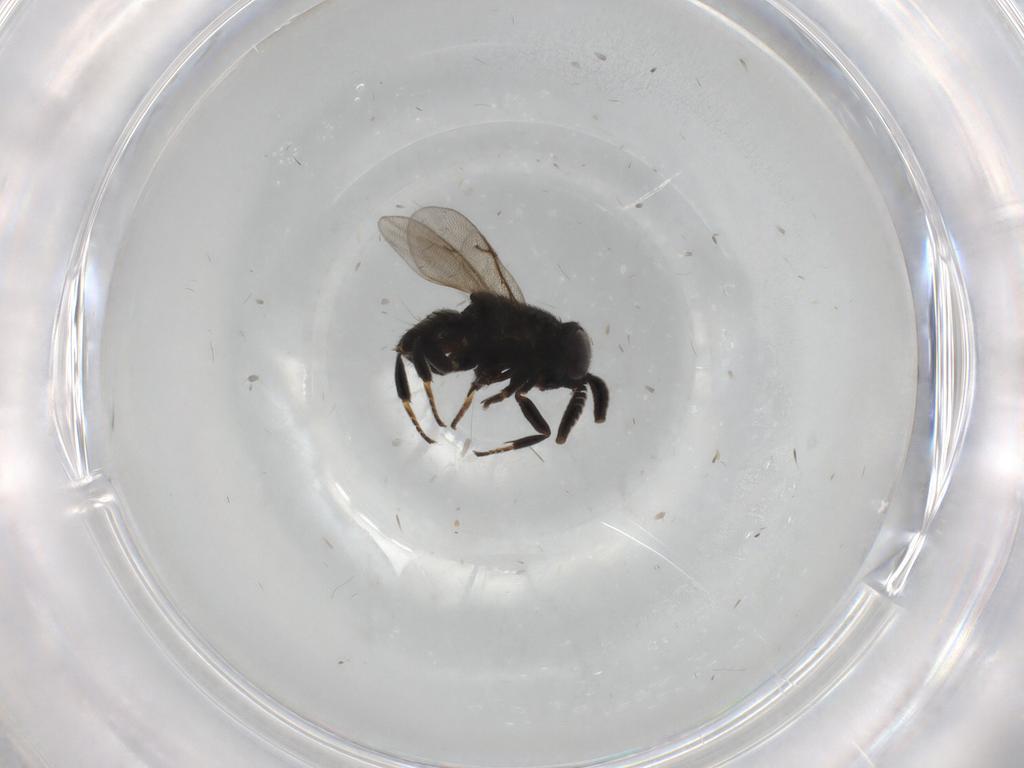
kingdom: Animalia
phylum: Arthropoda
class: Insecta
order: Hymenoptera
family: Encyrtidae
